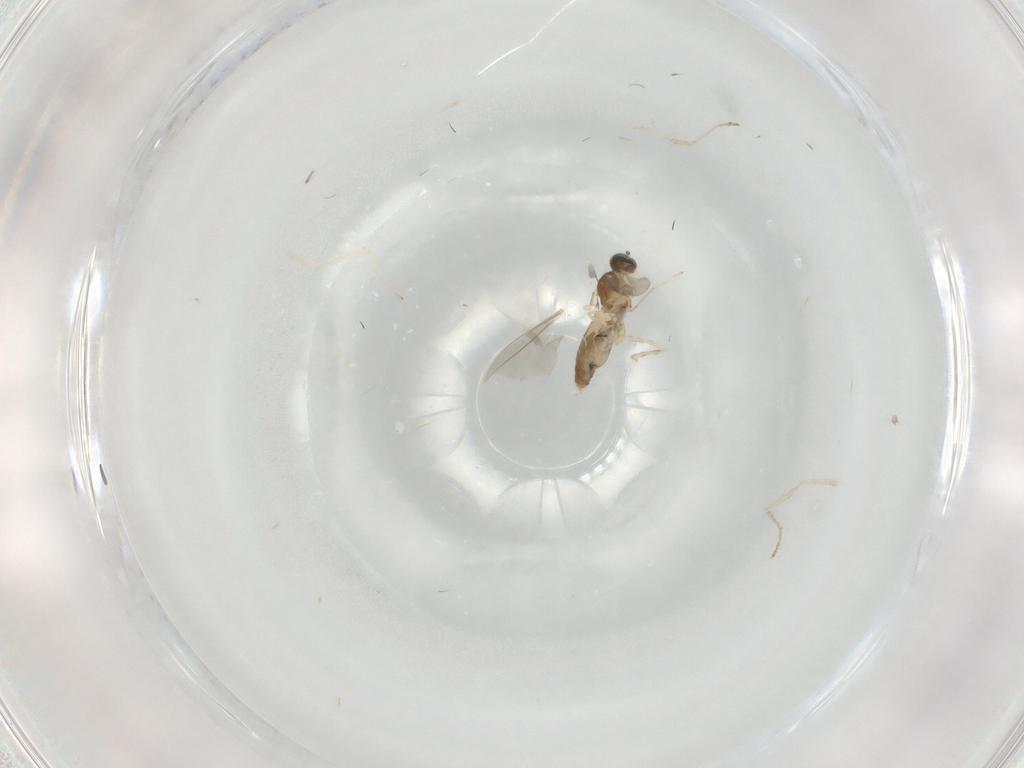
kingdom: Animalia
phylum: Arthropoda
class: Insecta
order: Diptera
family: Cecidomyiidae
